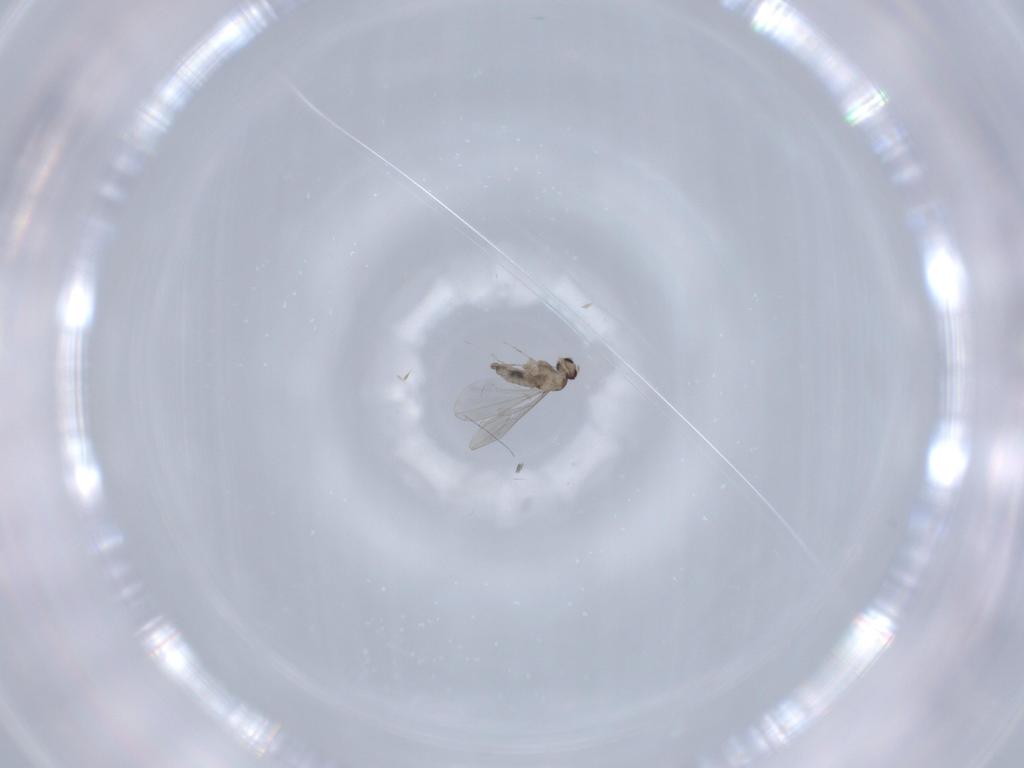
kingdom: Animalia
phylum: Arthropoda
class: Insecta
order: Diptera
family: Cecidomyiidae
